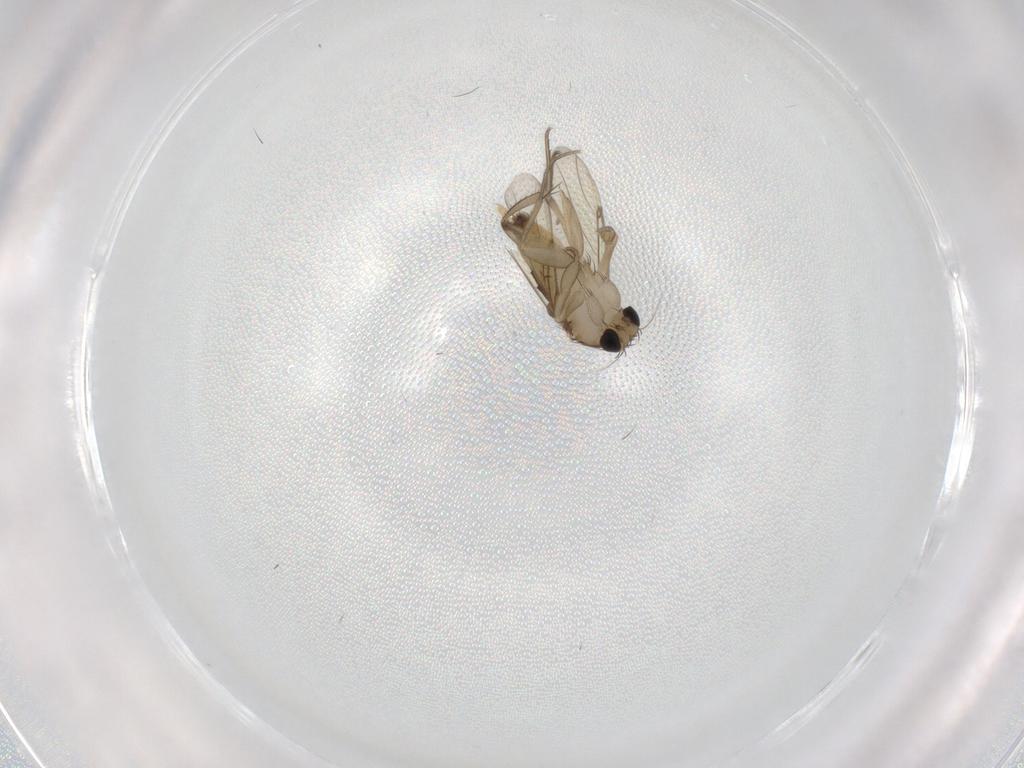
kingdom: Animalia
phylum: Arthropoda
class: Insecta
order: Diptera
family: Phoridae
